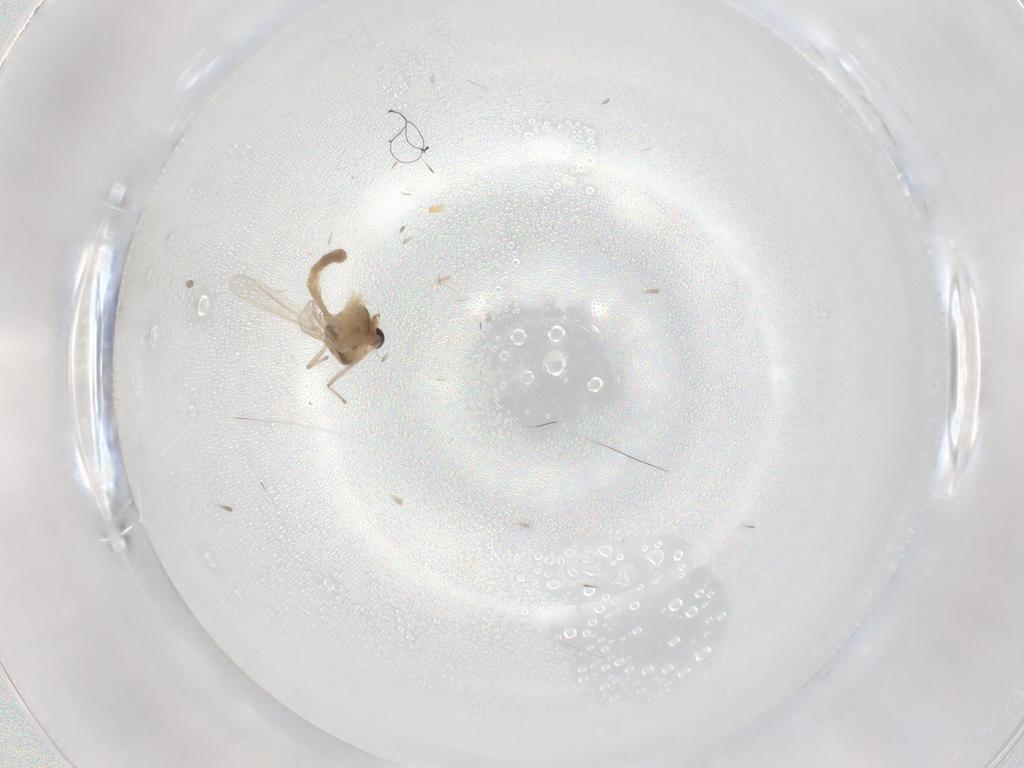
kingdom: Animalia
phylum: Arthropoda
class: Insecta
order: Diptera
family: Chironomidae
